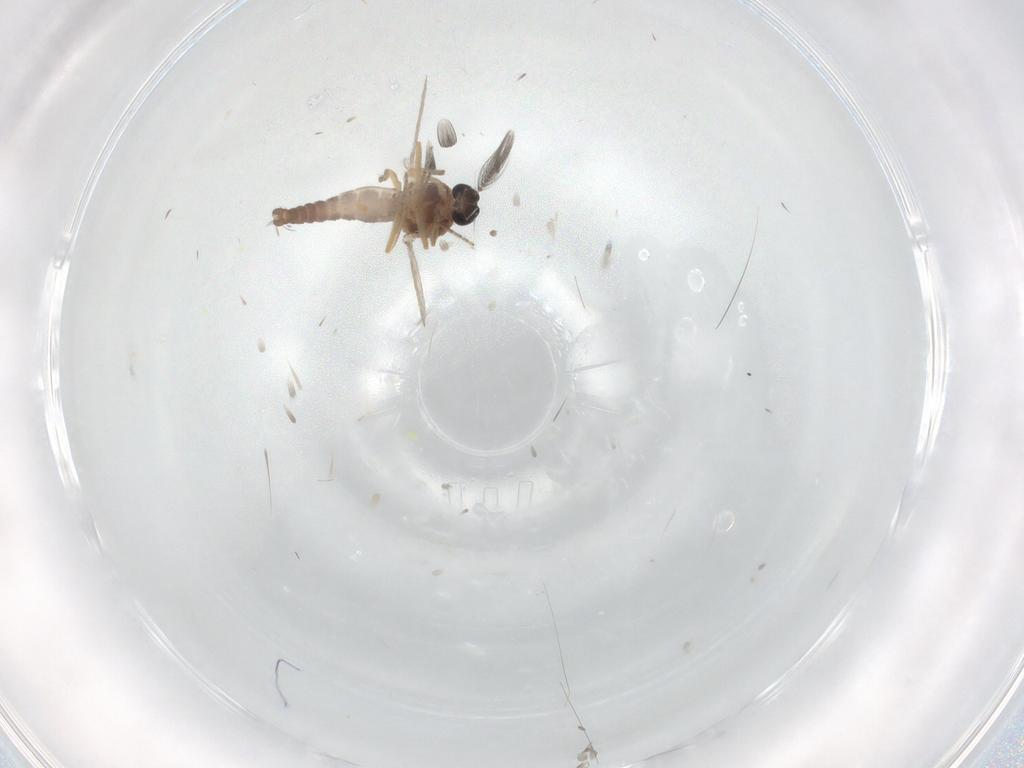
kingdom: Animalia
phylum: Arthropoda
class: Insecta
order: Diptera
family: Ceratopogonidae
